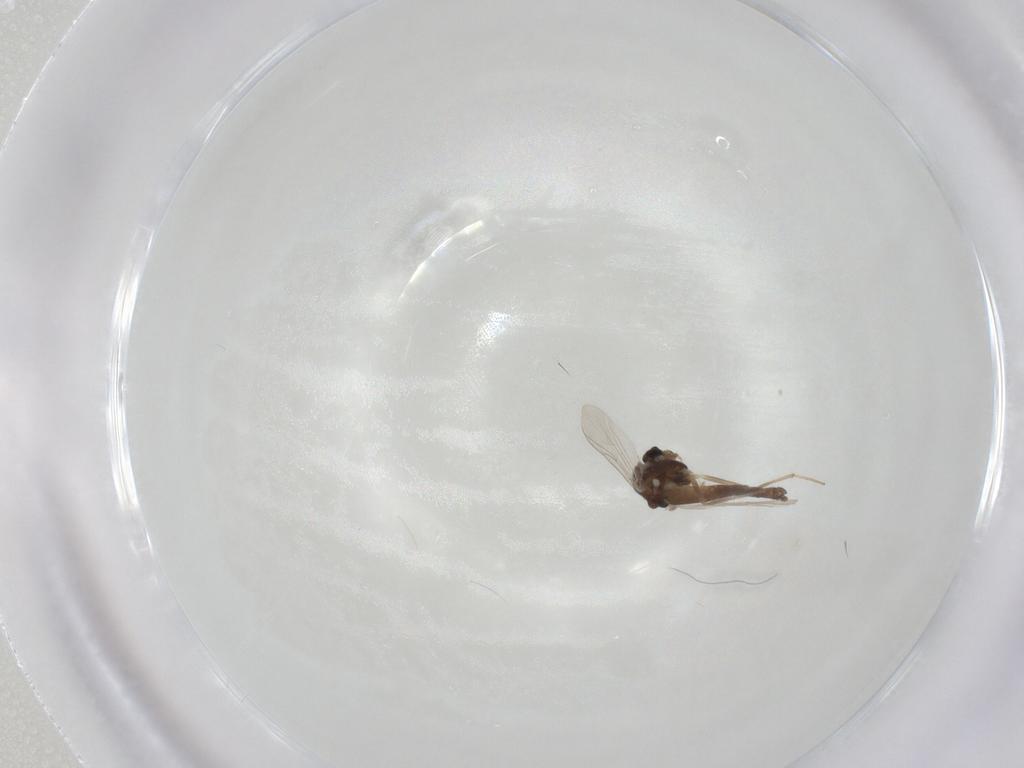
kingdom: Animalia
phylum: Arthropoda
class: Insecta
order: Diptera
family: Chironomidae
